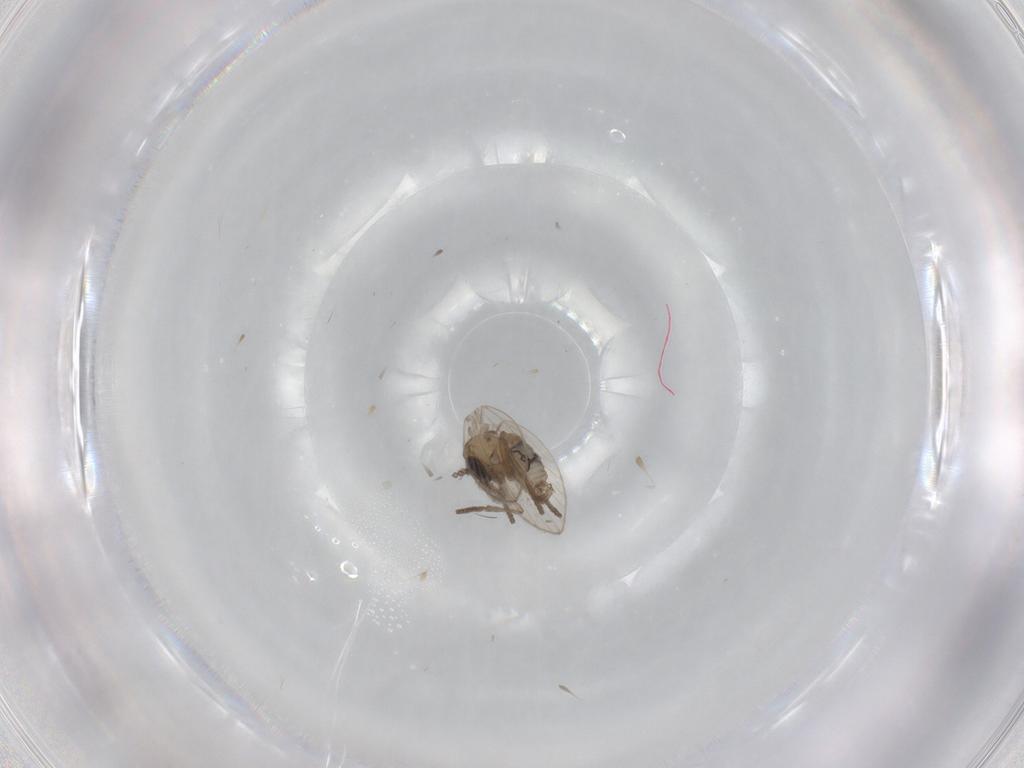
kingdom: Animalia
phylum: Arthropoda
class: Insecta
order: Diptera
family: Psychodidae
